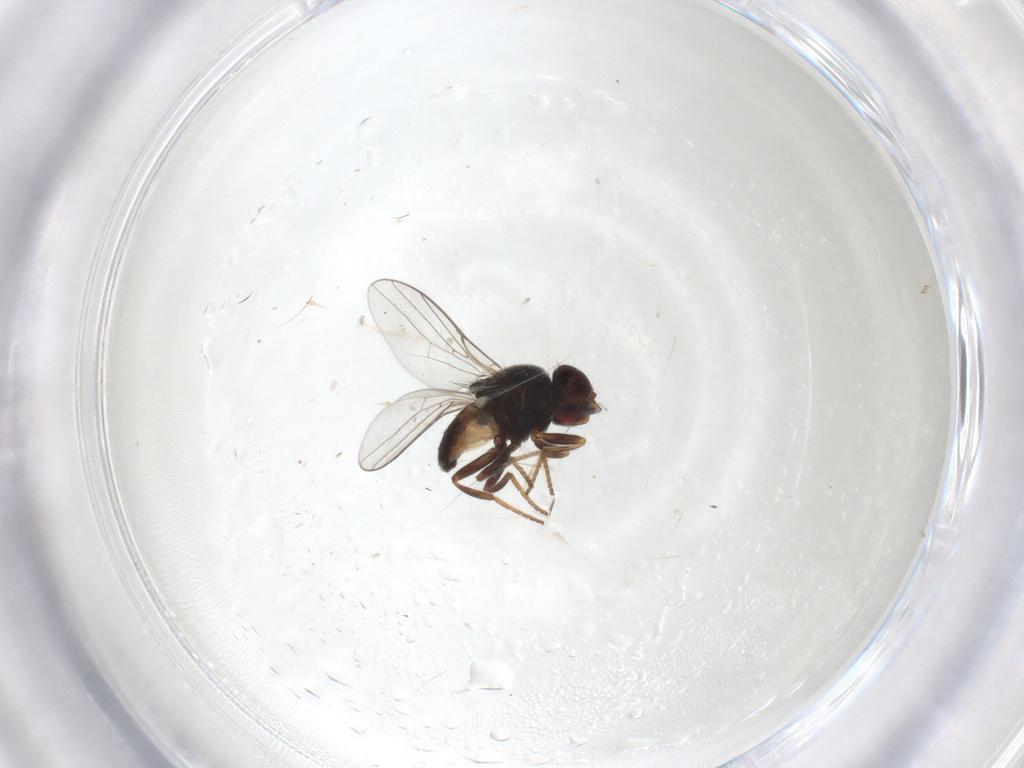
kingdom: Animalia
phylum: Arthropoda
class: Insecta
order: Diptera
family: Chloropidae
